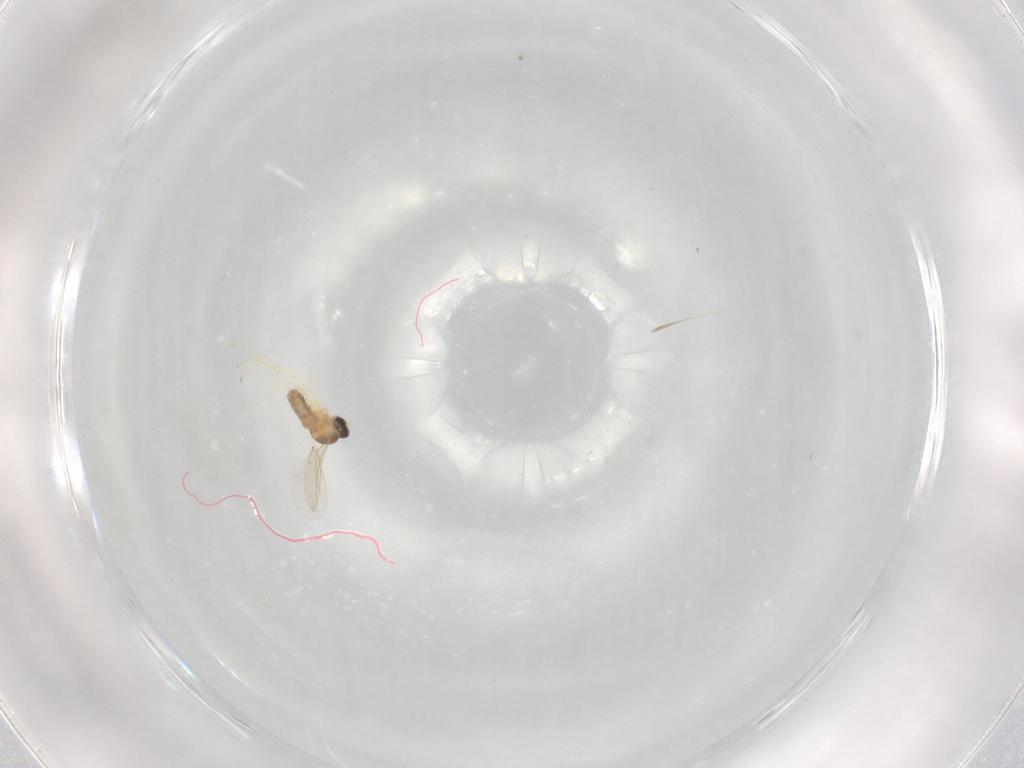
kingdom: Animalia
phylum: Arthropoda
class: Insecta
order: Diptera
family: Cecidomyiidae
